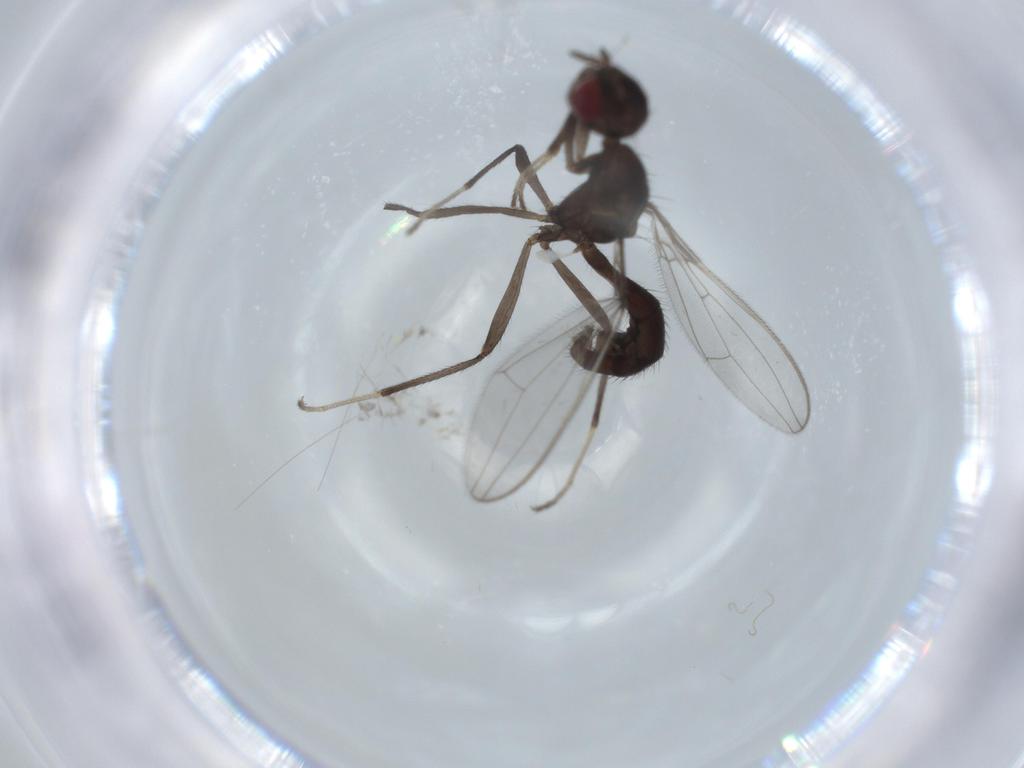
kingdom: Animalia
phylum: Arthropoda
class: Insecta
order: Diptera
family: Richardiidae
